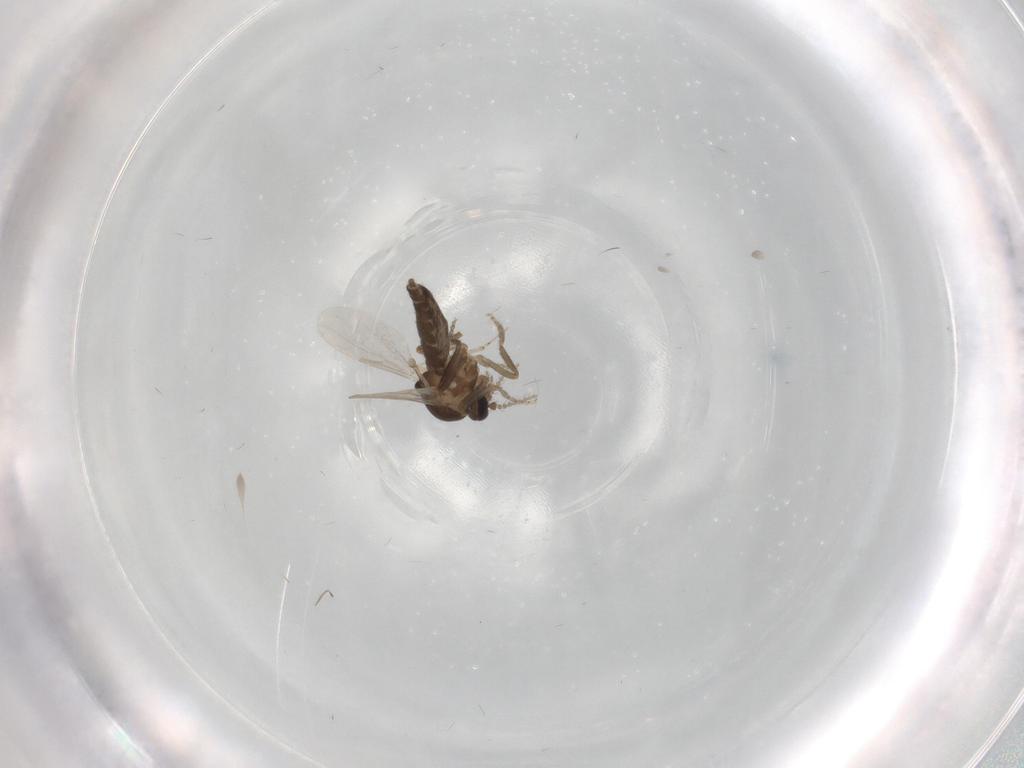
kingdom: Animalia
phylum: Arthropoda
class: Insecta
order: Diptera
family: Ceratopogonidae
